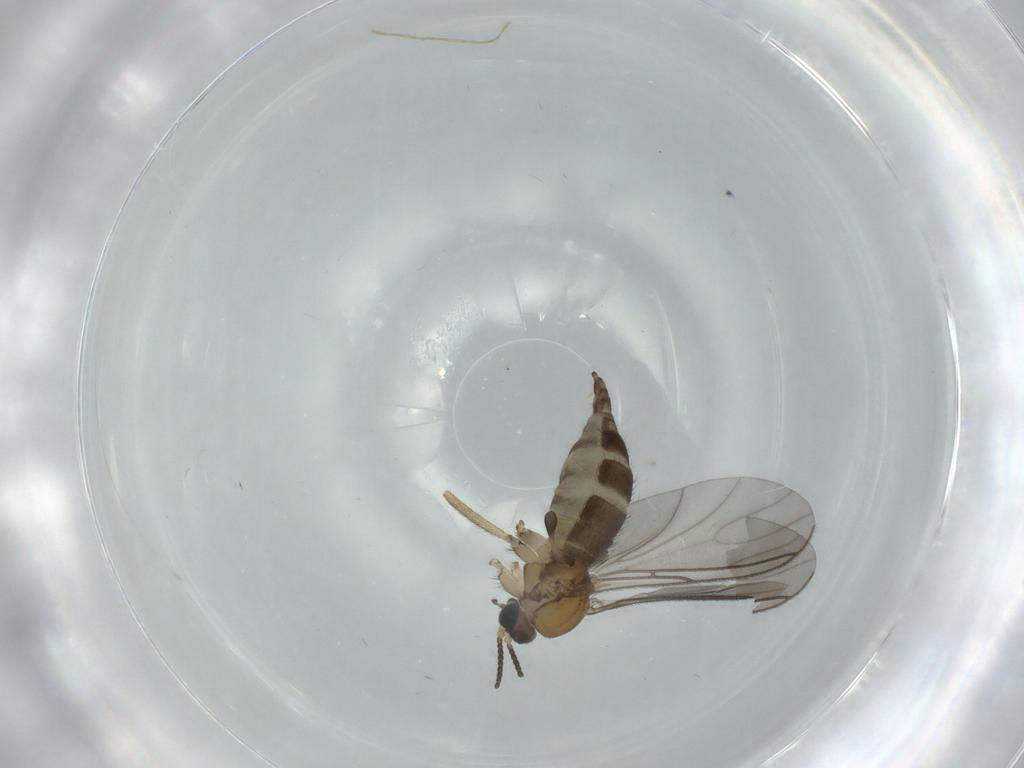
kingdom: Animalia
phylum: Arthropoda
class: Insecta
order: Diptera
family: Sciaridae
